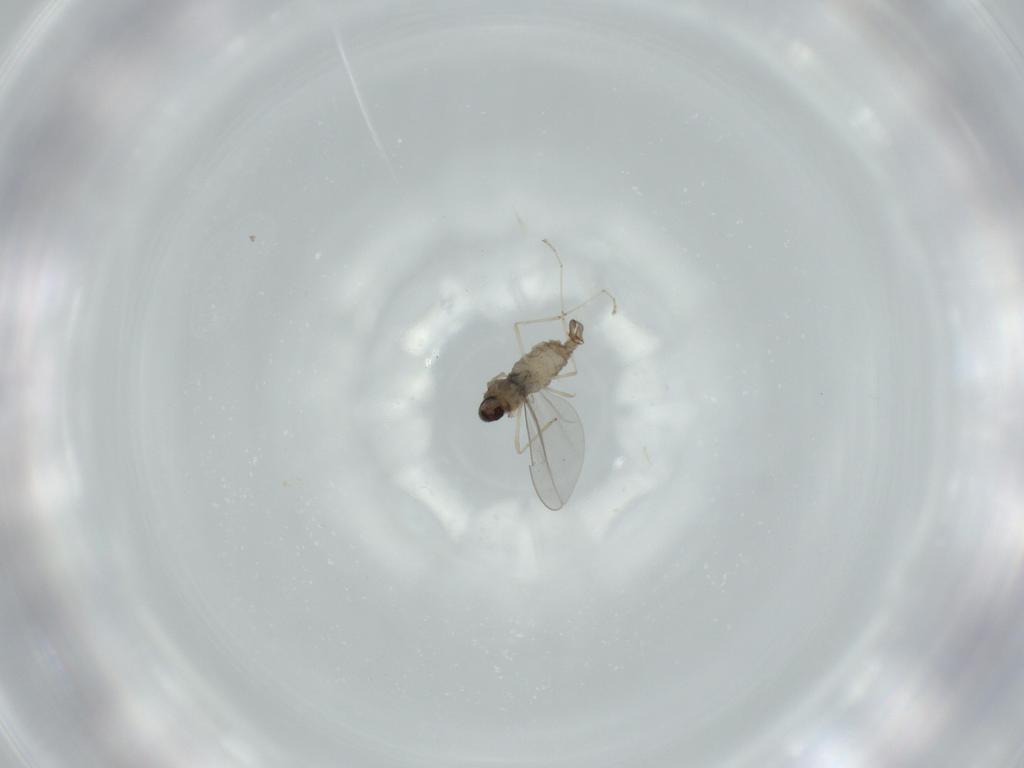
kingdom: Animalia
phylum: Arthropoda
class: Insecta
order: Diptera
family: Cecidomyiidae
